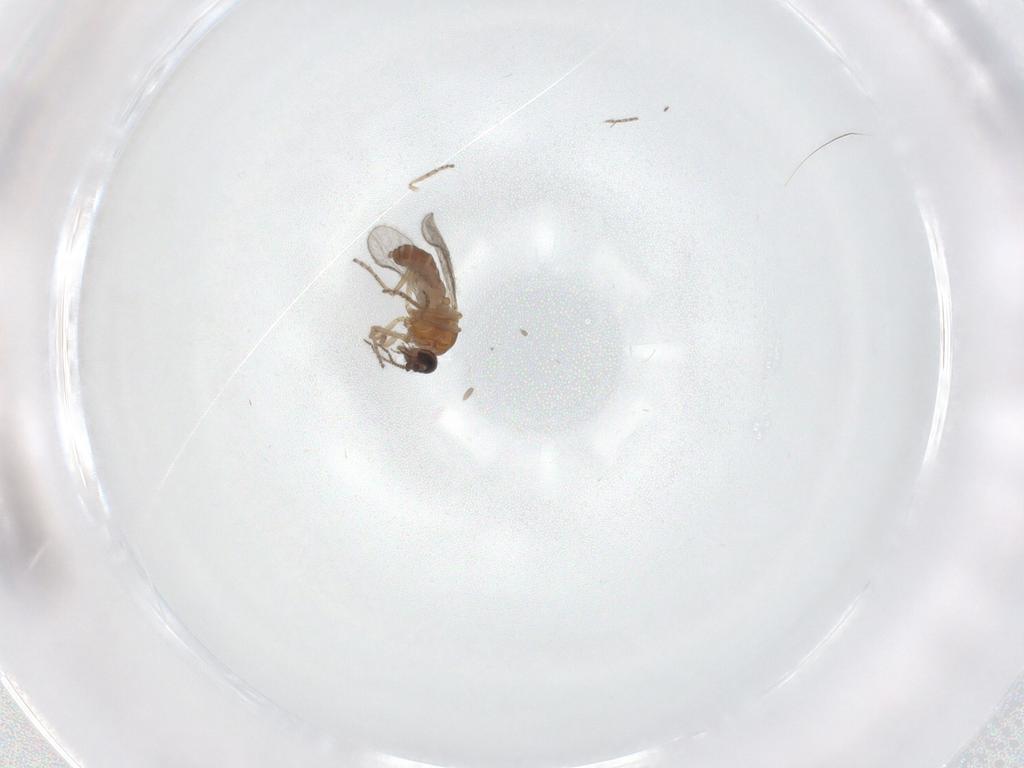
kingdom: Animalia
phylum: Arthropoda
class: Insecta
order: Diptera
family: Ceratopogonidae
